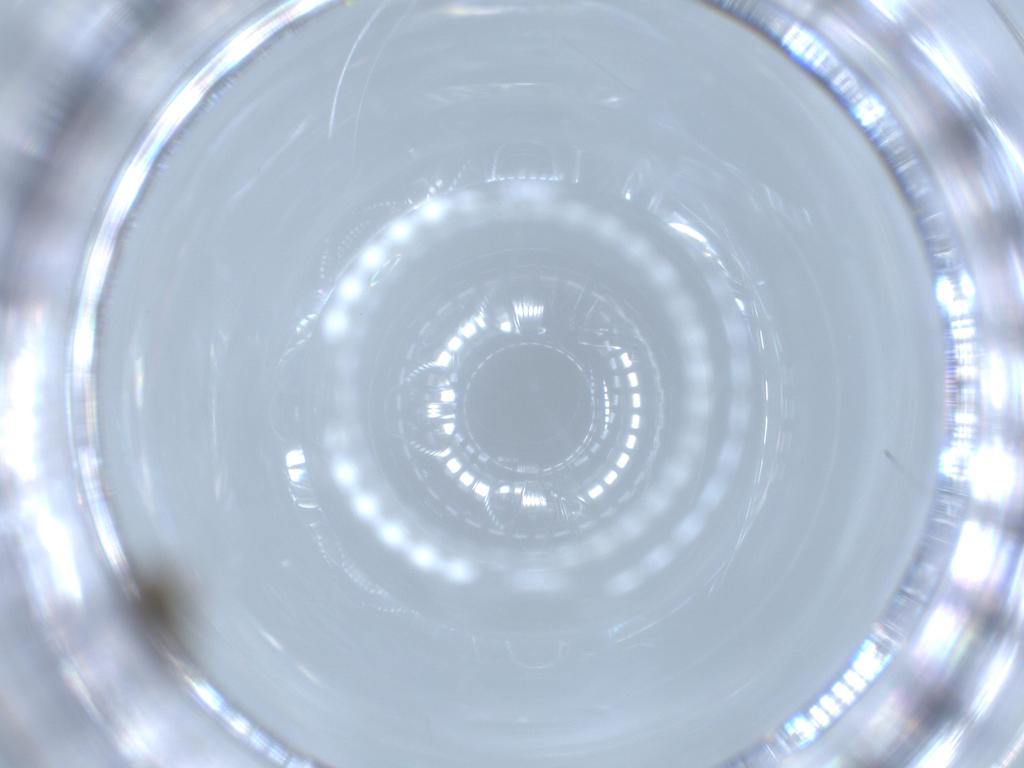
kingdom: Animalia
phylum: Arthropoda
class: Insecta
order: Diptera
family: Psychodidae
